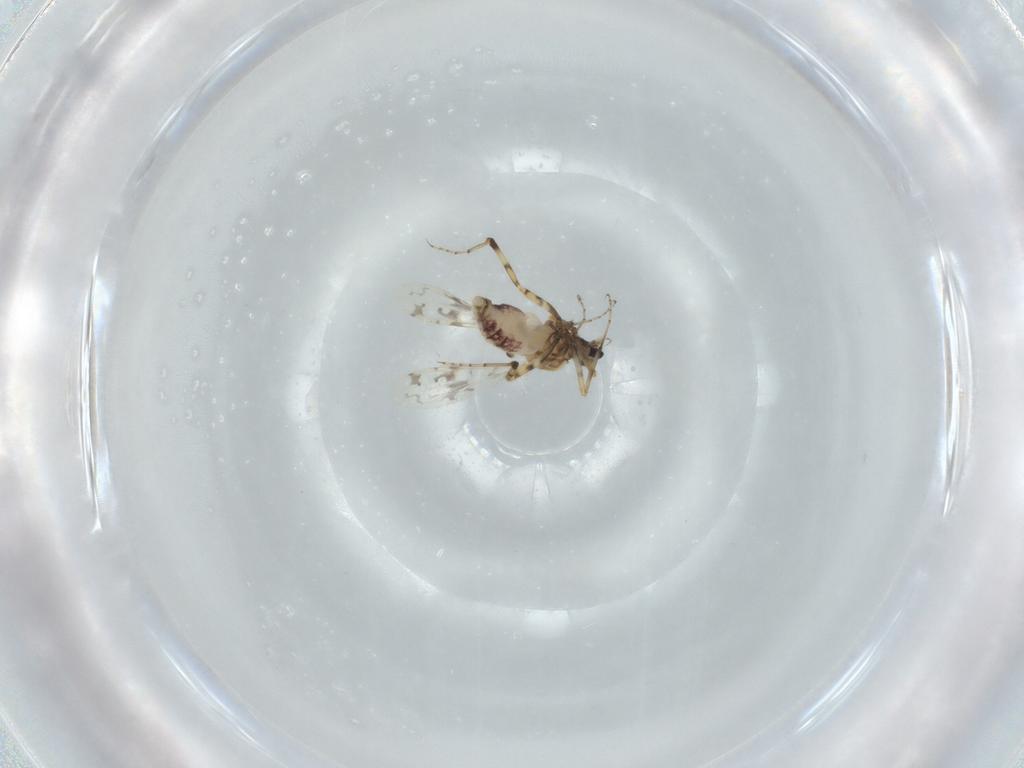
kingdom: Animalia
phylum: Arthropoda
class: Insecta
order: Diptera
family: Ceratopogonidae
